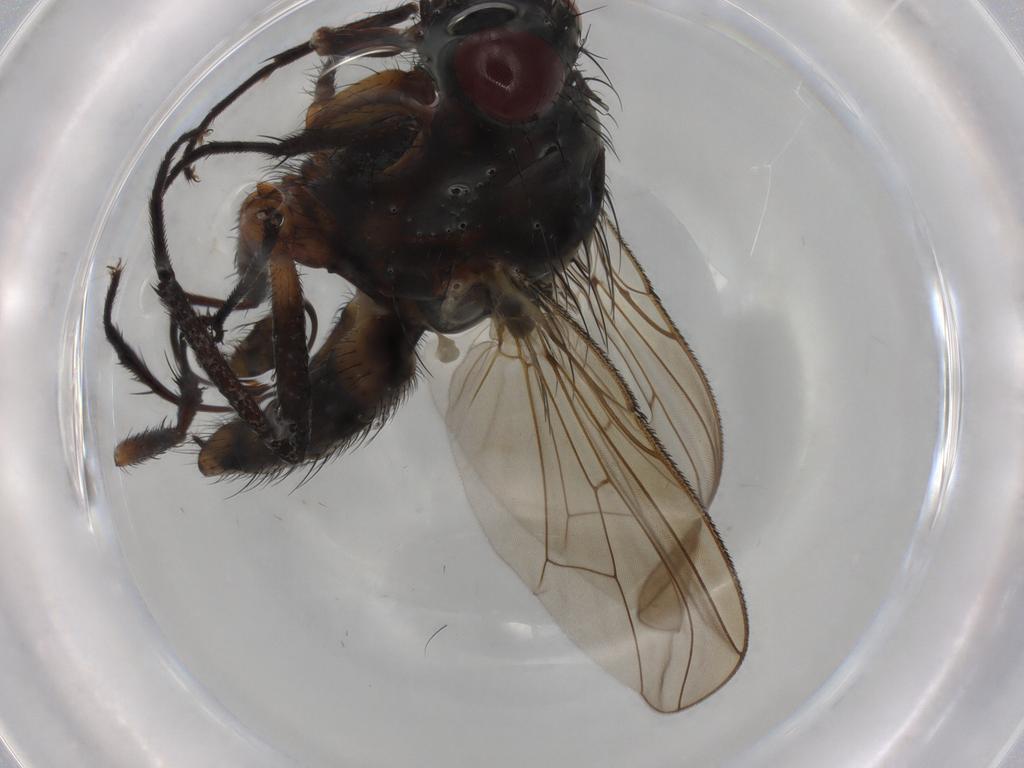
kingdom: Animalia
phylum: Arthropoda
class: Insecta
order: Diptera
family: Anthomyiidae
